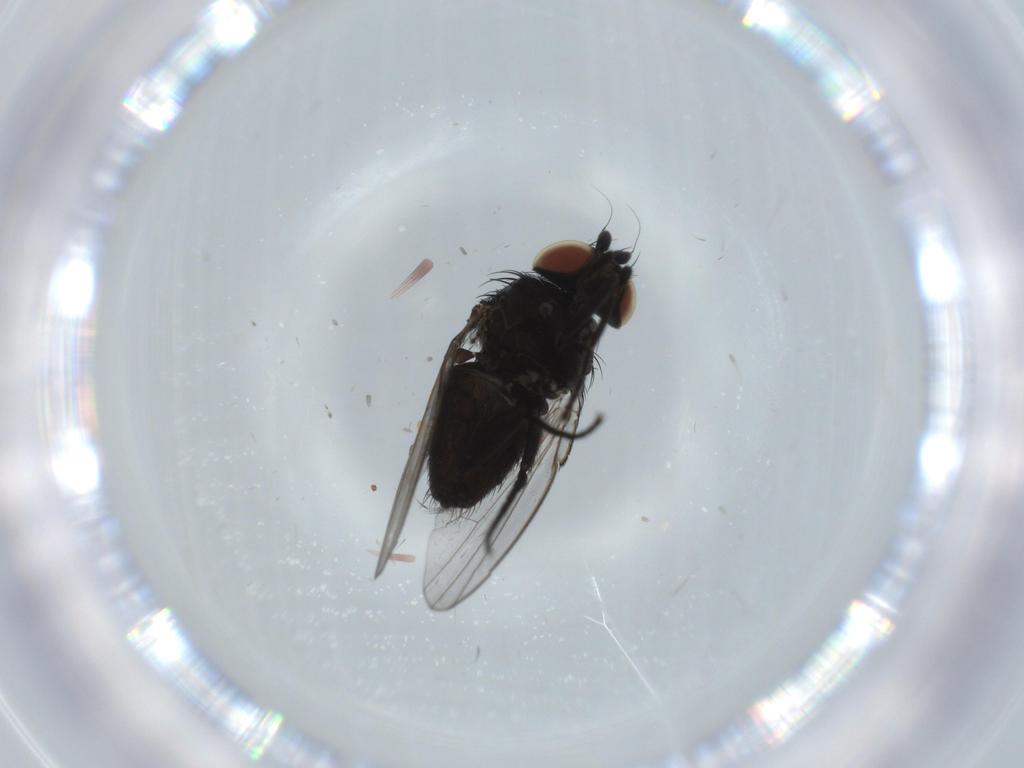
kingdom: Animalia
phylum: Arthropoda
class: Insecta
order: Diptera
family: Milichiidae
